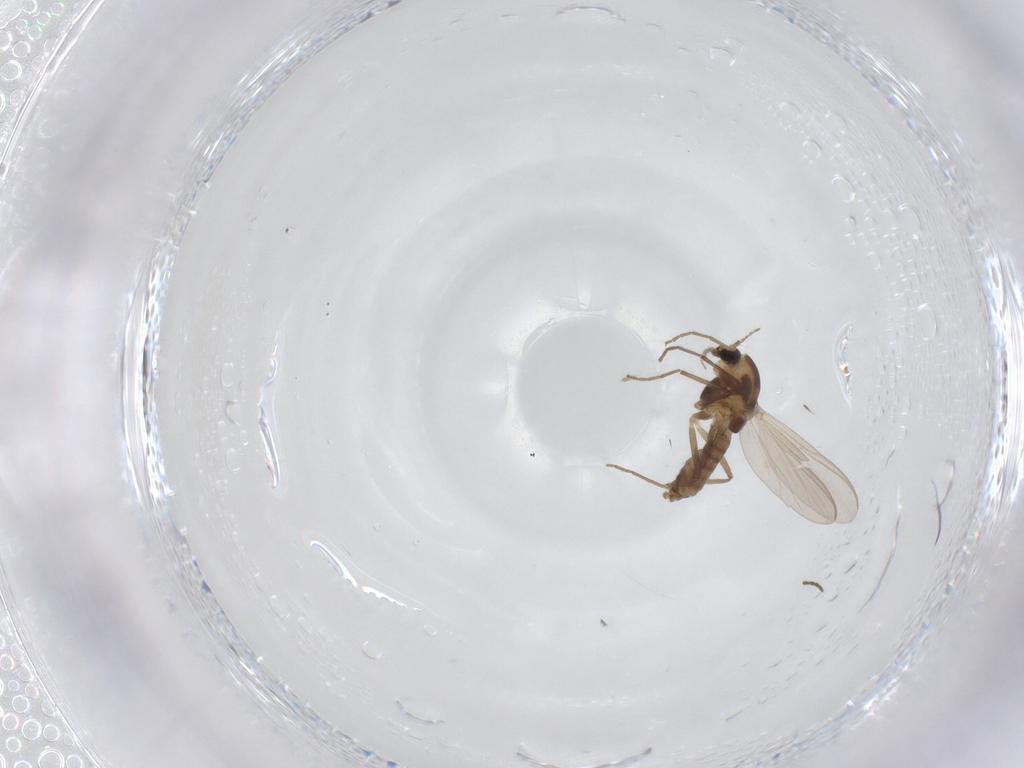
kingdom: Animalia
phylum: Arthropoda
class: Insecta
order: Diptera
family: Chironomidae
